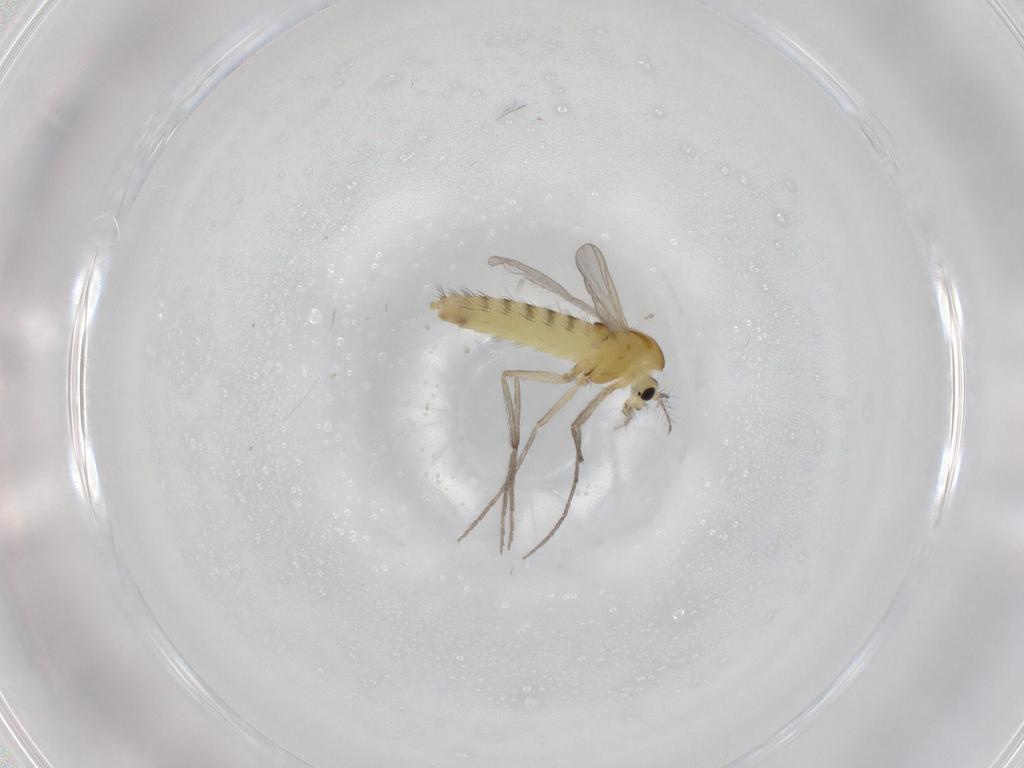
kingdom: Animalia
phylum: Arthropoda
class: Insecta
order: Diptera
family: Chironomidae
